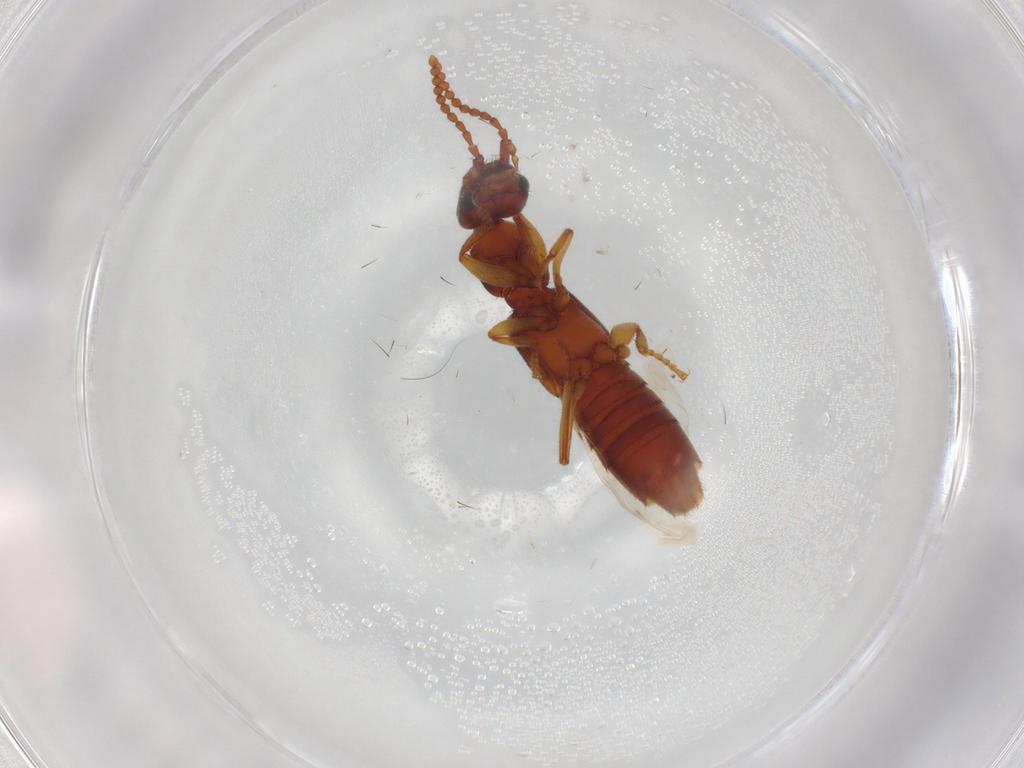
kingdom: Animalia
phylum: Arthropoda
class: Insecta
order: Coleoptera
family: Staphylinidae
